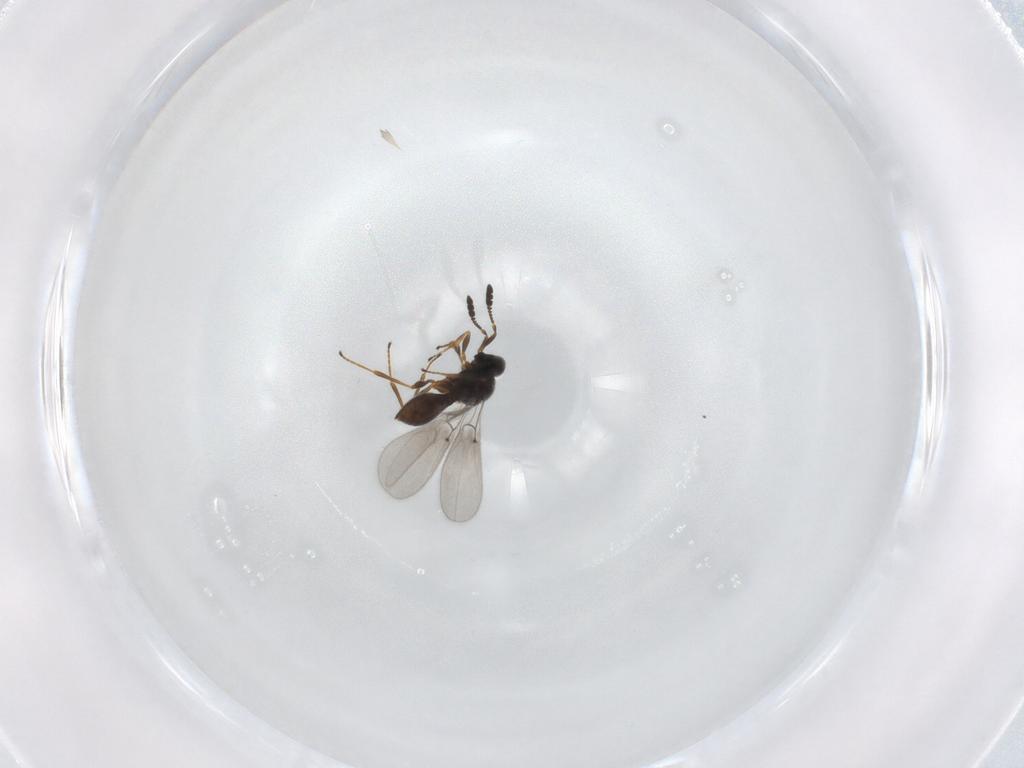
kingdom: Animalia
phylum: Arthropoda
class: Insecta
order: Hymenoptera
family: Platygastridae
